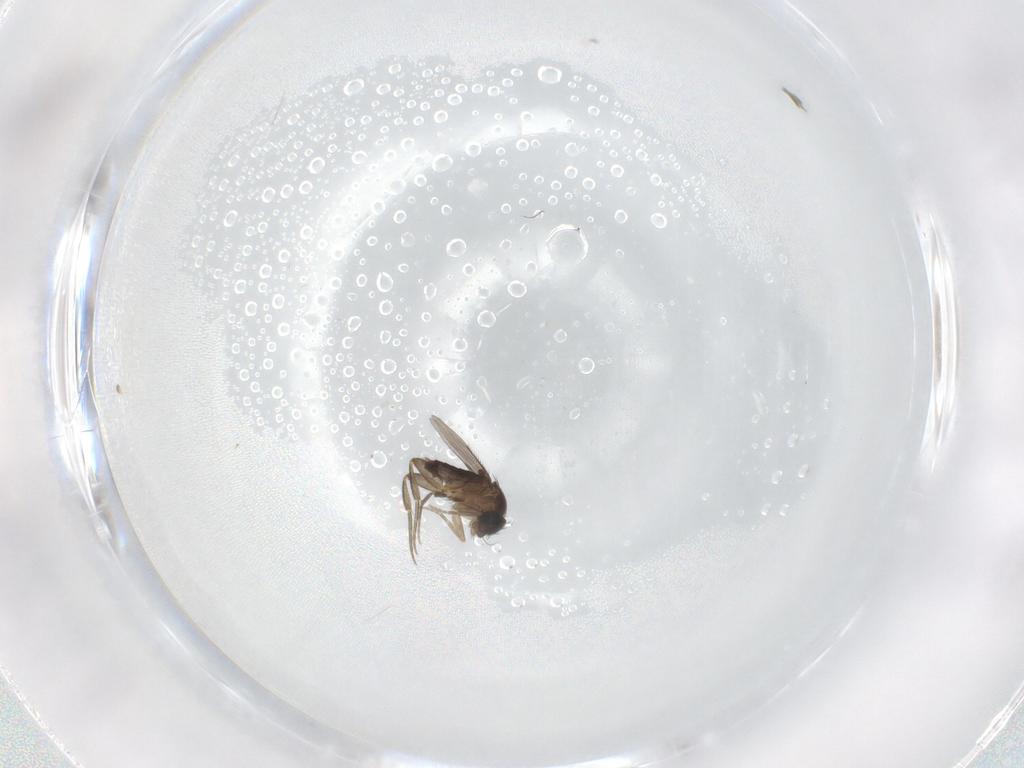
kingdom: Animalia
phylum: Arthropoda
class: Insecta
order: Diptera
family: Phoridae
